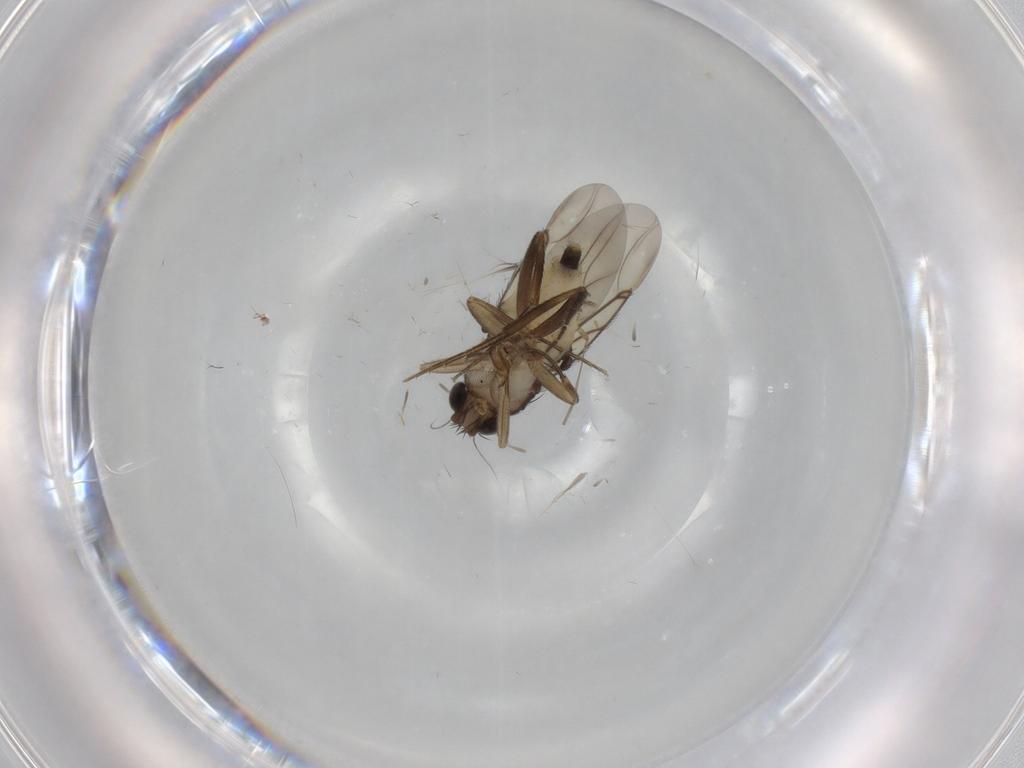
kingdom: Animalia
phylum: Arthropoda
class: Insecta
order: Diptera
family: Phoridae
